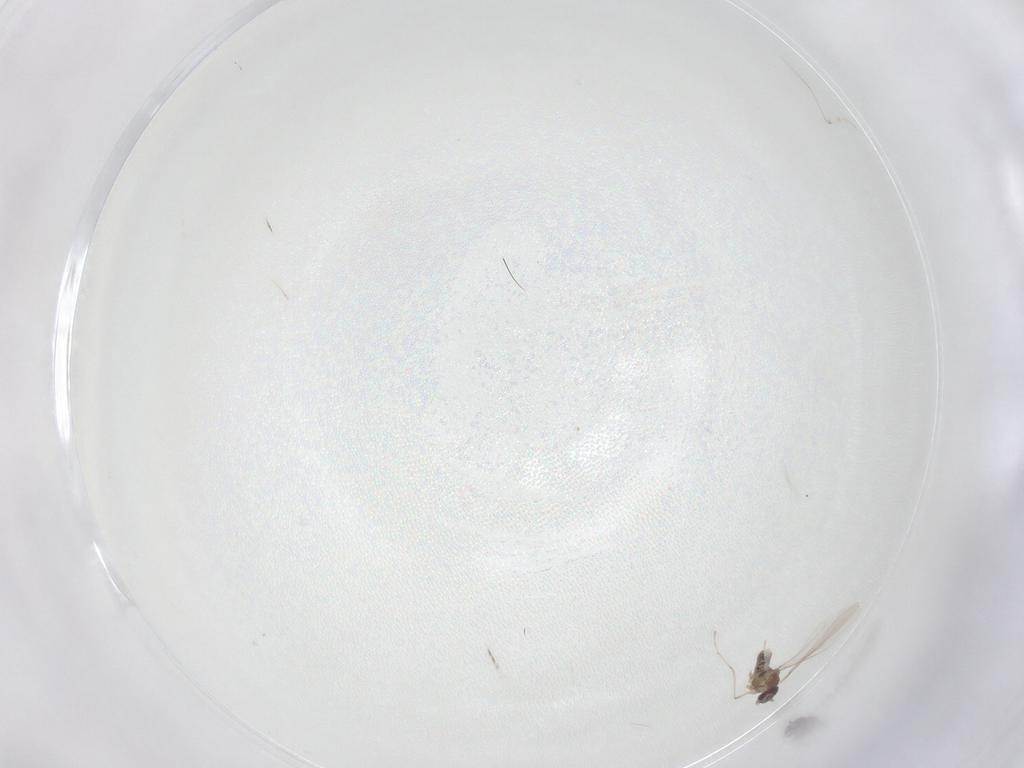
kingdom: Animalia
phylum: Arthropoda
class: Insecta
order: Diptera
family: Cecidomyiidae
